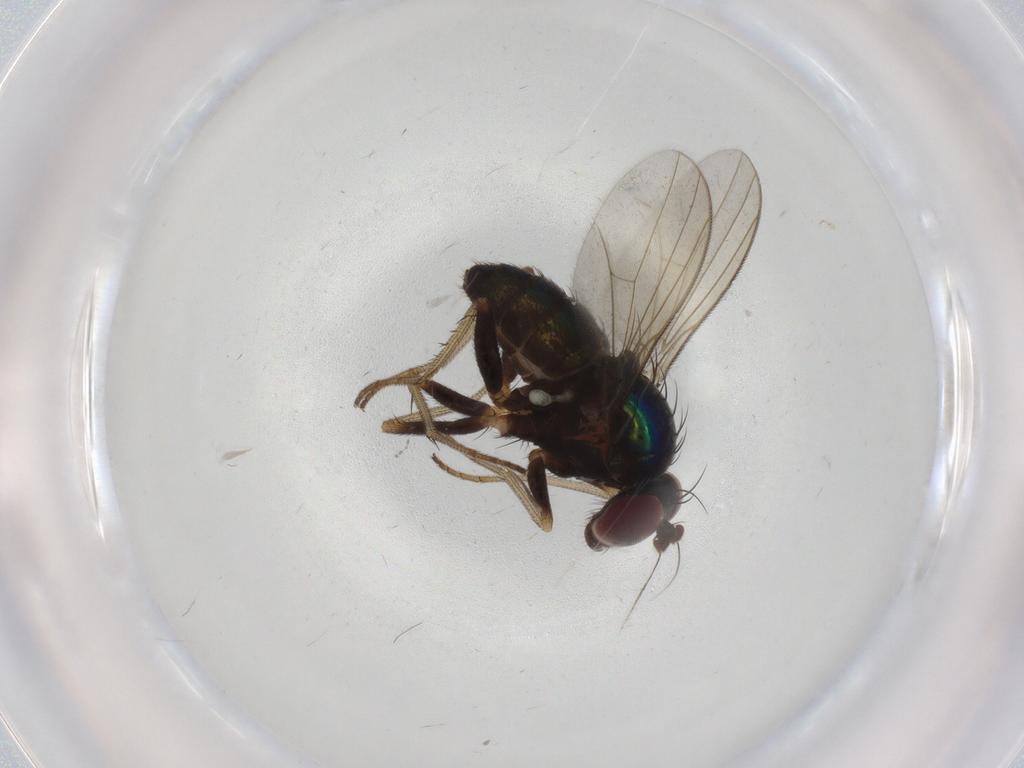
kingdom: Animalia
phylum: Arthropoda
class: Insecta
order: Diptera
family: Dolichopodidae
